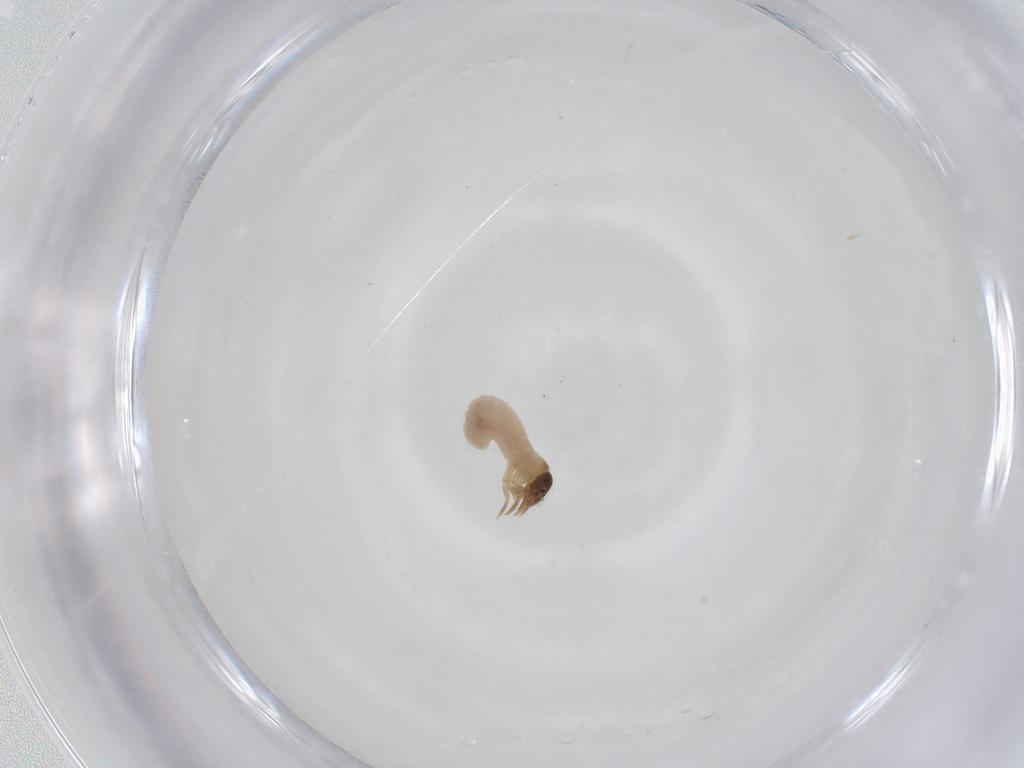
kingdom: Animalia
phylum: Arthropoda
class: Insecta
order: Coleoptera
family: Chrysomelidae
